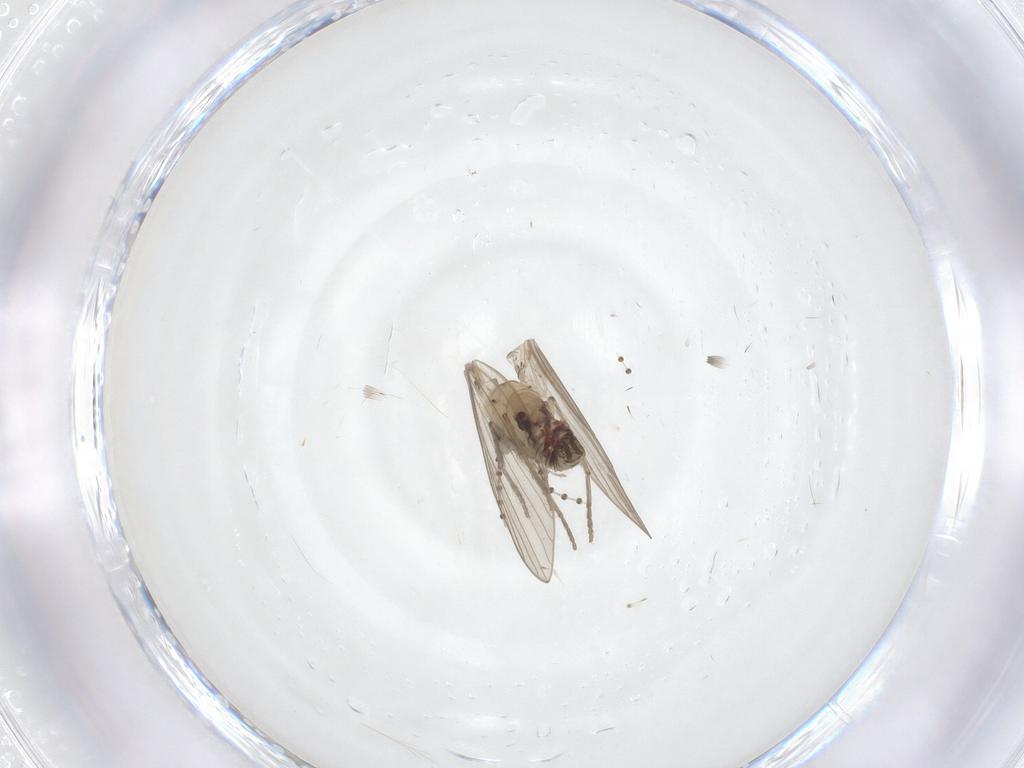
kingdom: Animalia
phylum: Arthropoda
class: Insecta
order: Diptera
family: Psychodidae
